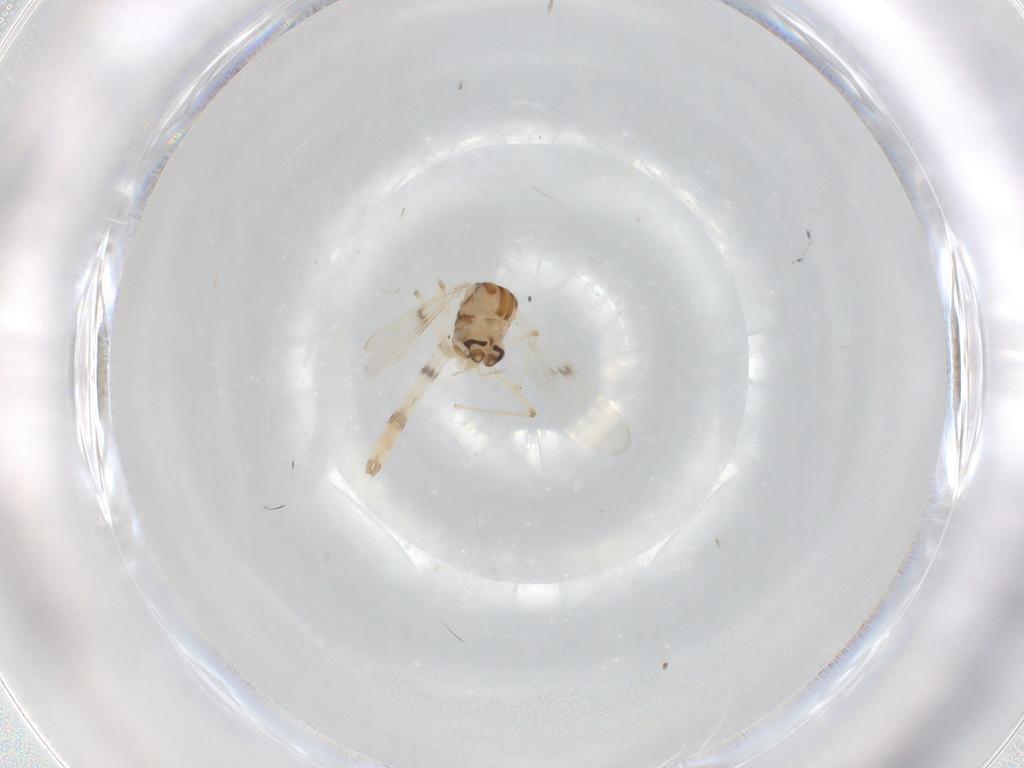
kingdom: Animalia
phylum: Arthropoda
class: Insecta
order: Diptera
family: Chironomidae
